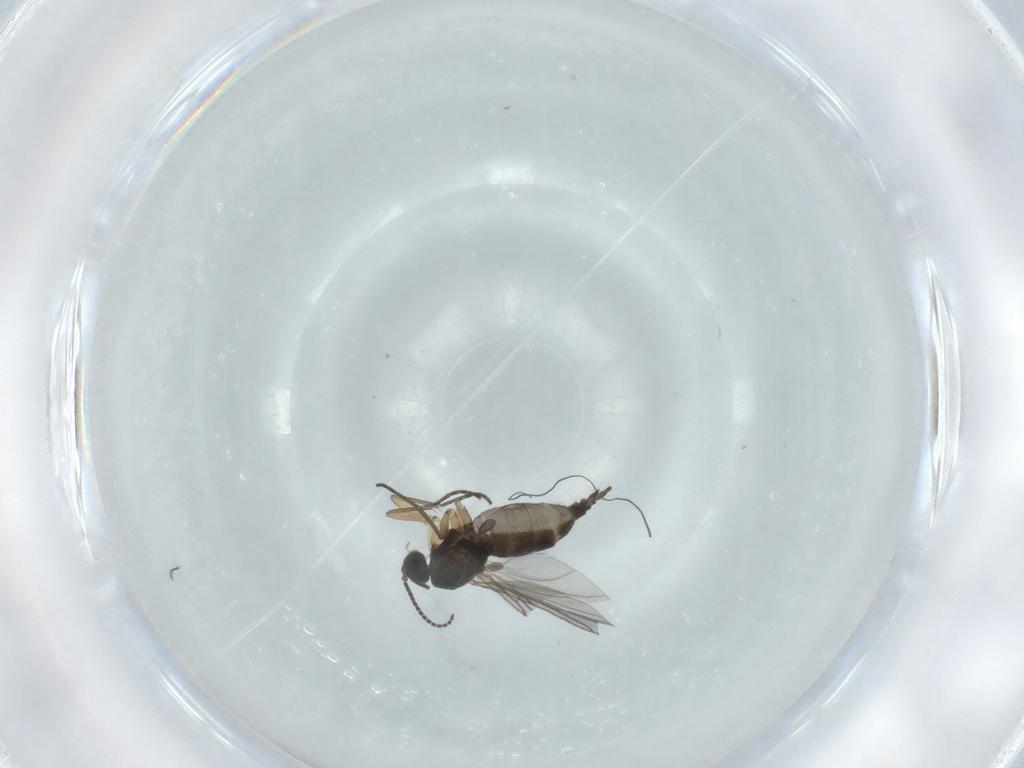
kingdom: Animalia
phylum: Arthropoda
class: Insecta
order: Diptera
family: Sciaridae
